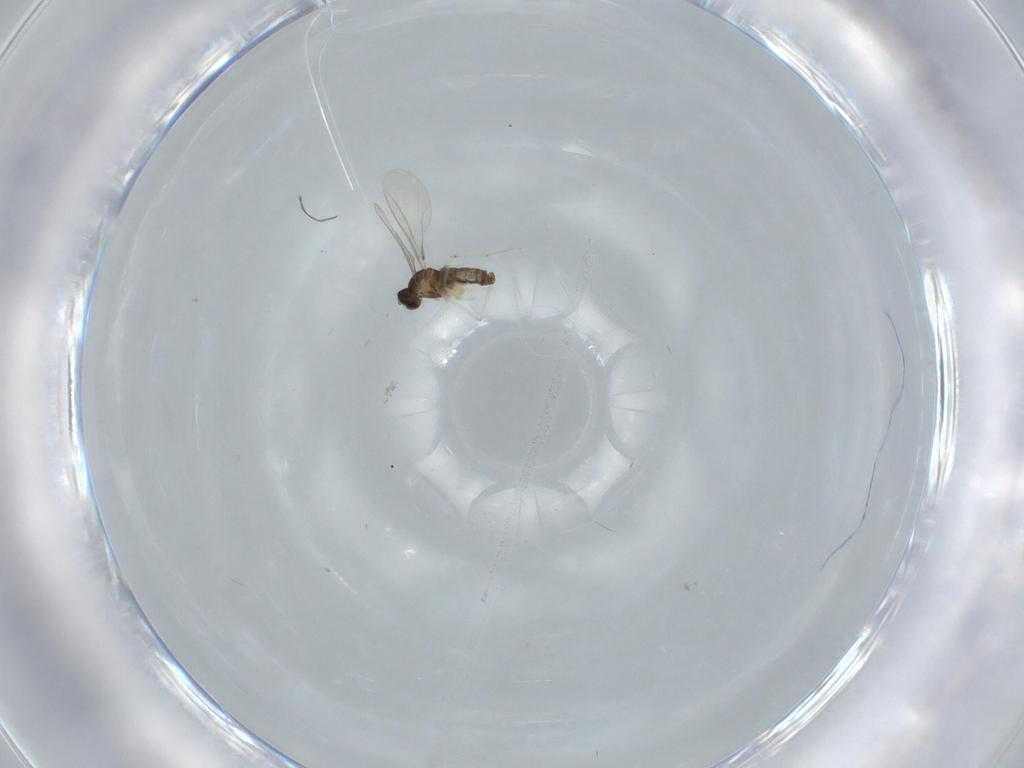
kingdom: Animalia
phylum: Arthropoda
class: Insecta
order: Diptera
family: Cecidomyiidae
